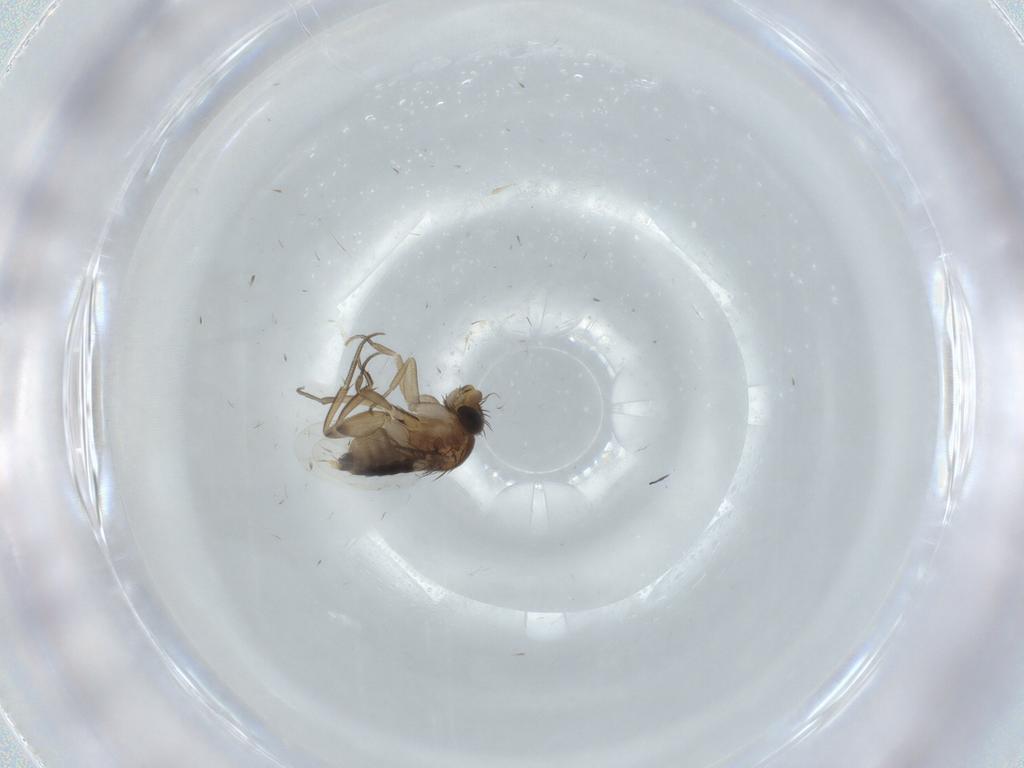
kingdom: Animalia
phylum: Arthropoda
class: Insecta
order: Diptera
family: Phoridae
